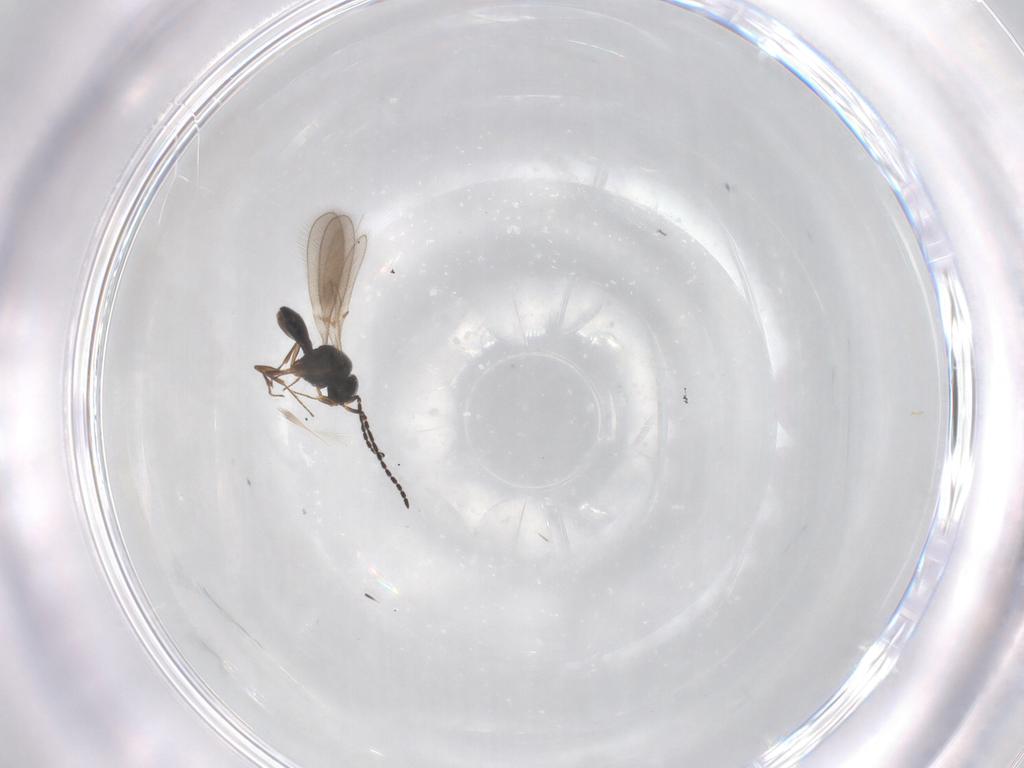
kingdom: Animalia
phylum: Arthropoda
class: Insecta
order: Hymenoptera
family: Scelionidae
